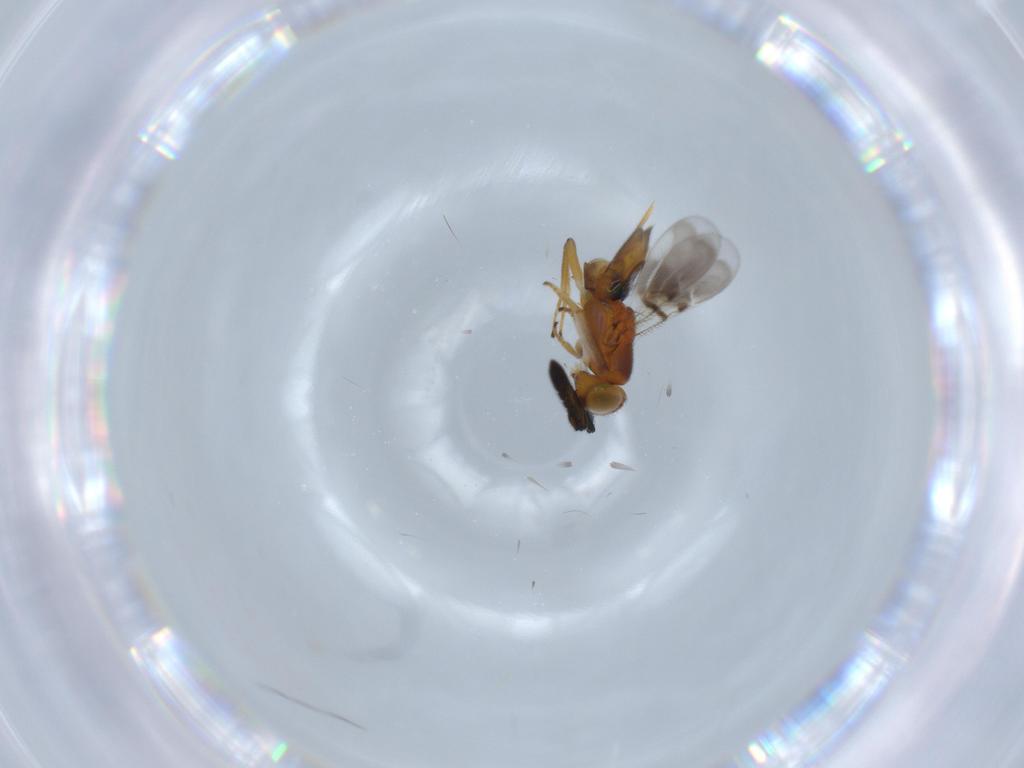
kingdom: Animalia
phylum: Arthropoda
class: Insecta
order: Hymenoptera
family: Encyrtidae
